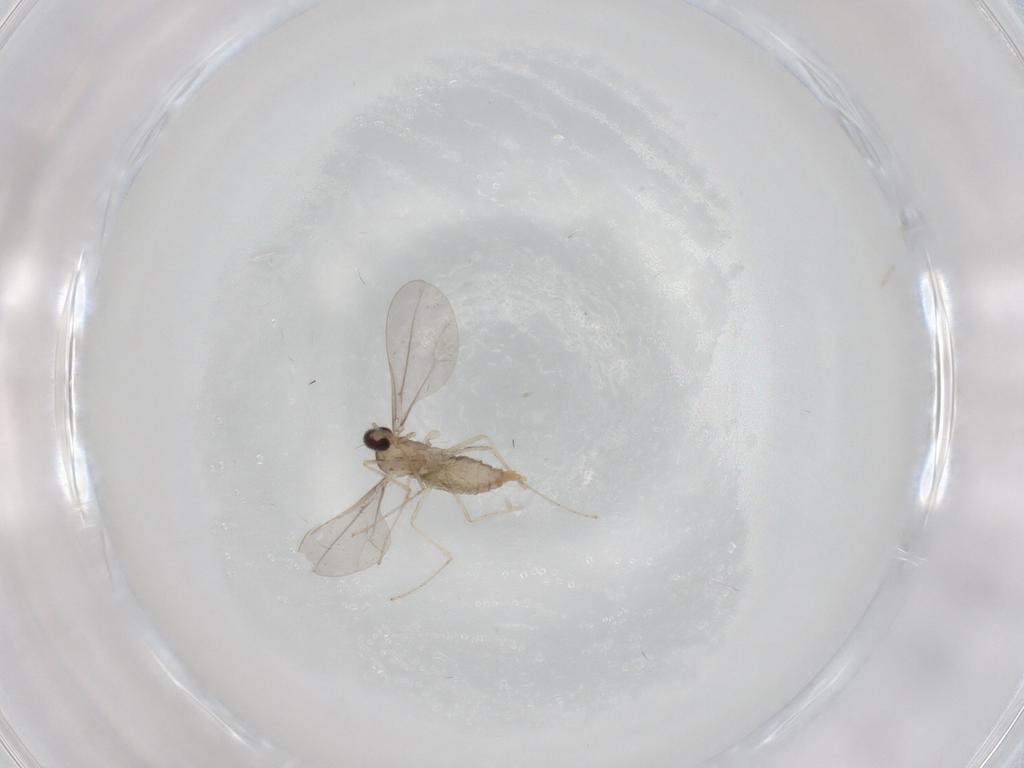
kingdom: Animalia
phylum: Arthropoda
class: Insecta
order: Diptera
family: Cecidomyiidae
